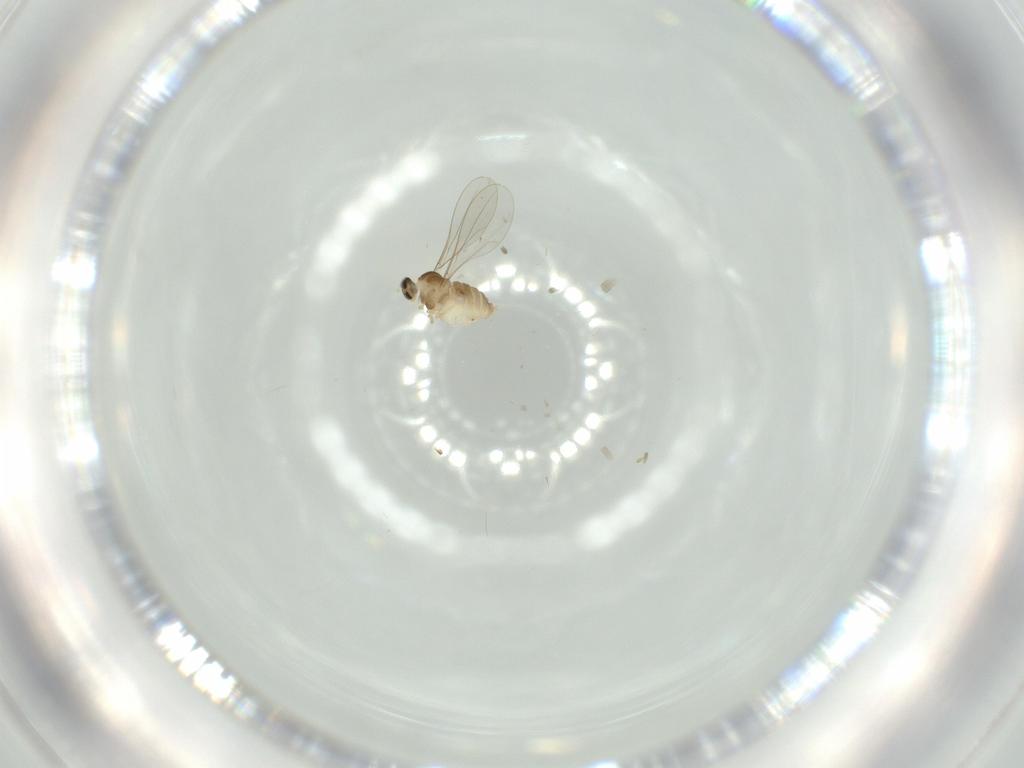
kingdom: Animalia
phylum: Arthropoda
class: Insecta
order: Diptera
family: Cecidomyiidae
